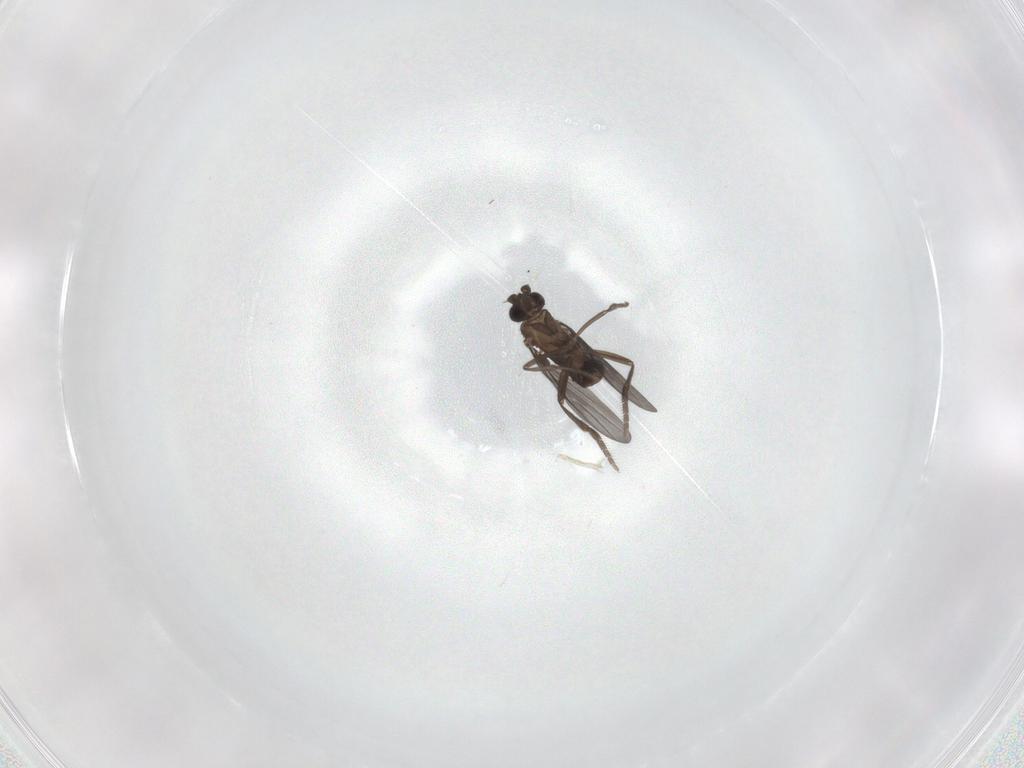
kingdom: Animalia
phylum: Arthropoda
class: Insecta
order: Diptera
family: Phoridae
